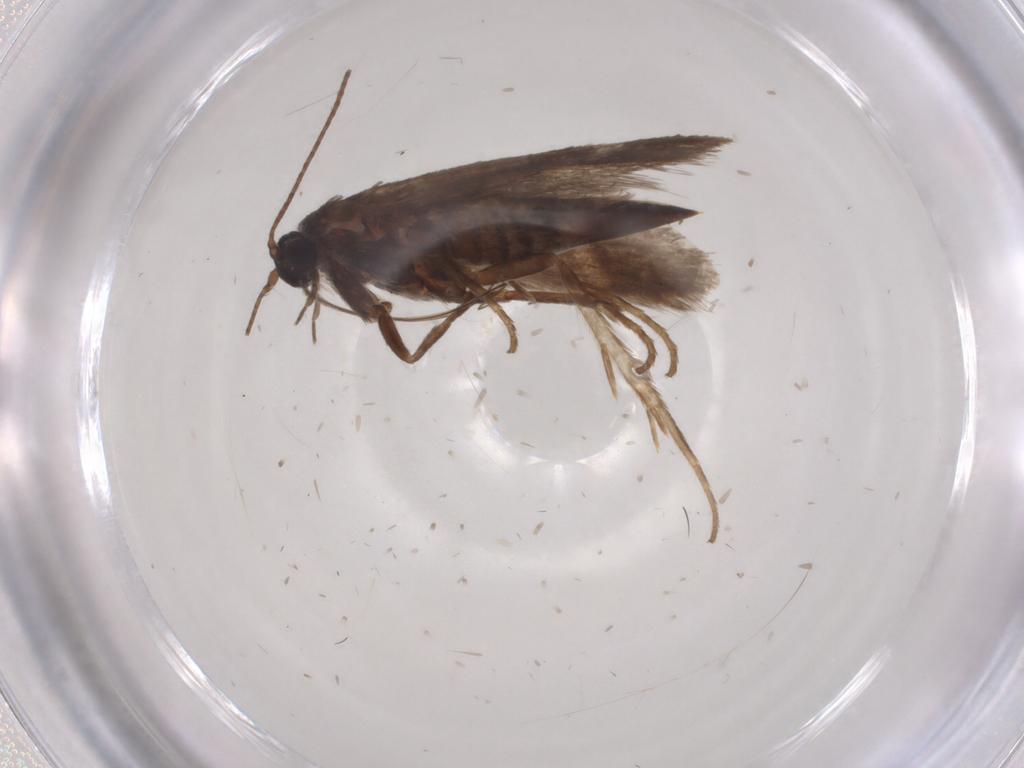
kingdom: Animalia
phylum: Arthropoda
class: Insecta
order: Lepidoptera
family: Adelidae
